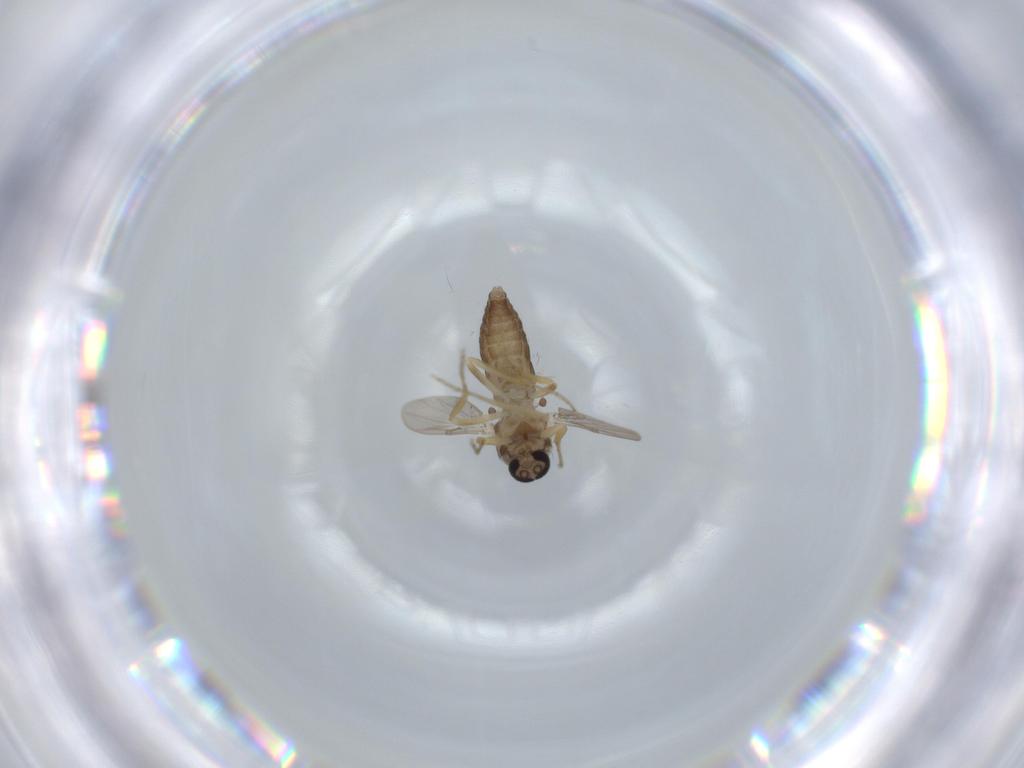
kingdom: Animalia
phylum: Arthropoda
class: Insecta
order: Diptera
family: Ceratopogonidae
